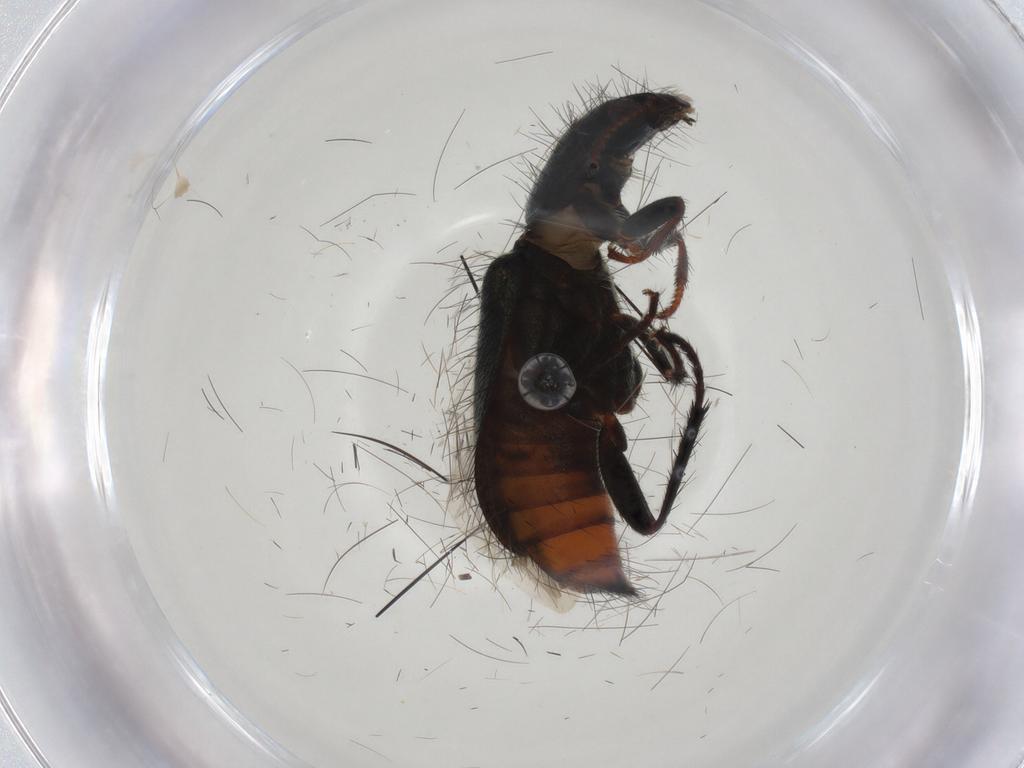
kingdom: Animalia
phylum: Arthropoda
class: Insecta
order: Coleoptera
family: Melyridae
